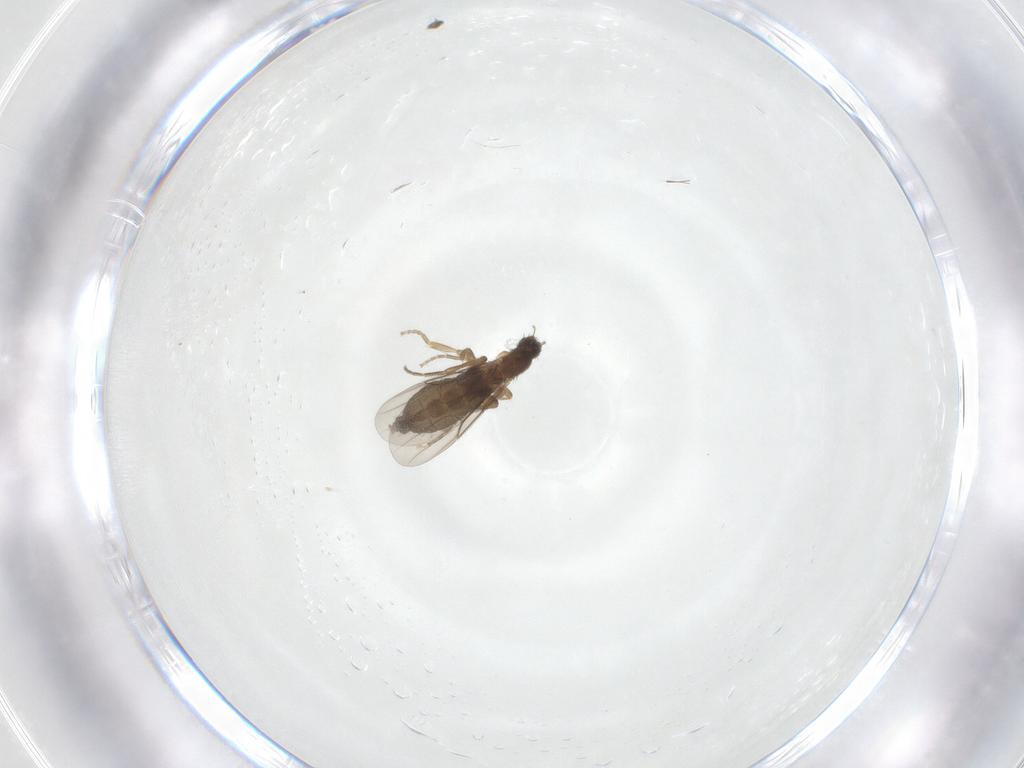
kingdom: Animalia
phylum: Arthropoda
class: Insecta
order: Diptera
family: Phoridae
